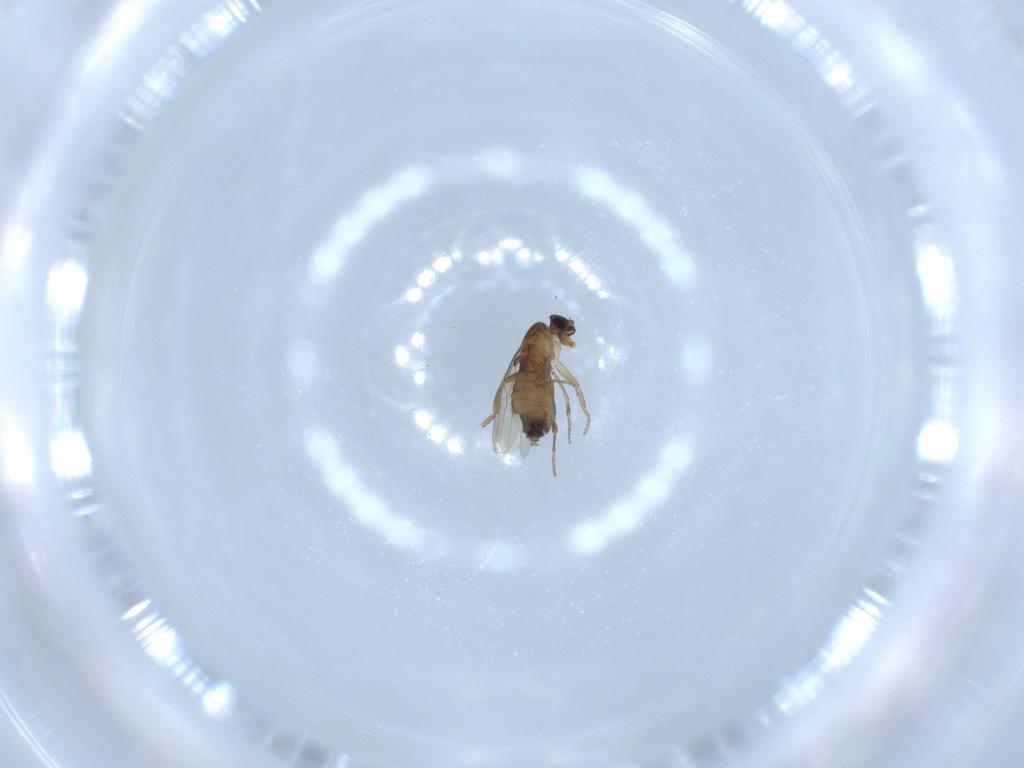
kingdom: Animalia
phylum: Arthropoda
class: Insecta
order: Diptera
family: Phoridae
